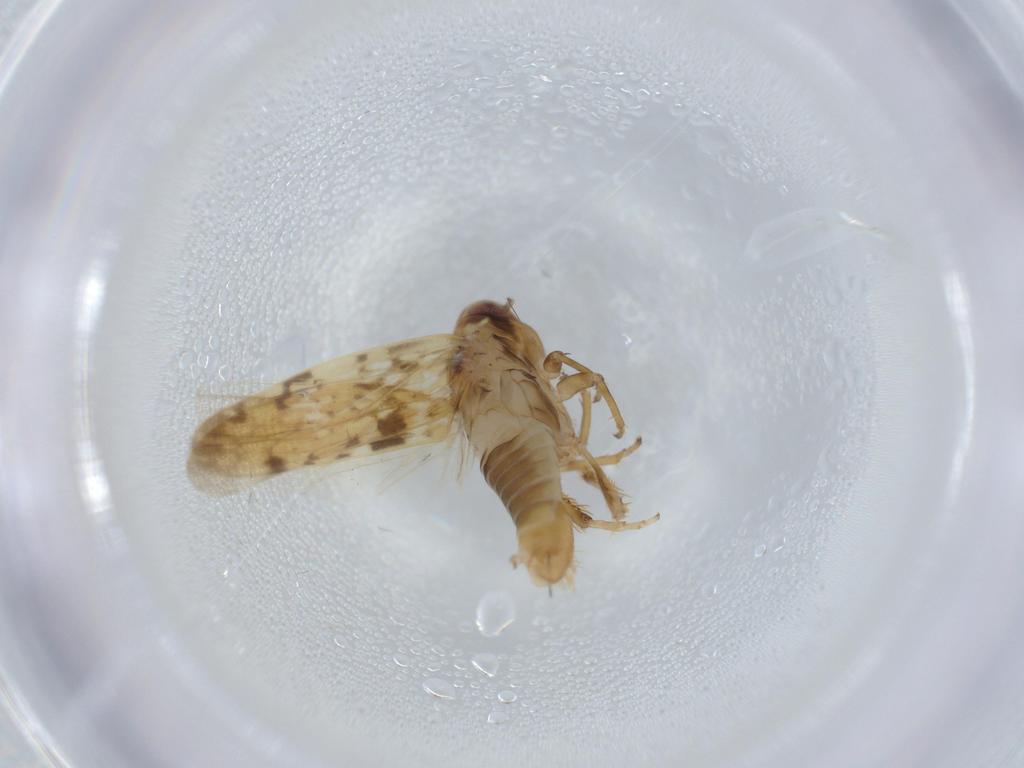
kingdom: Animalia
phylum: Arthropoda
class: Insecta
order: Hemiptera
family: Cicadellidae
